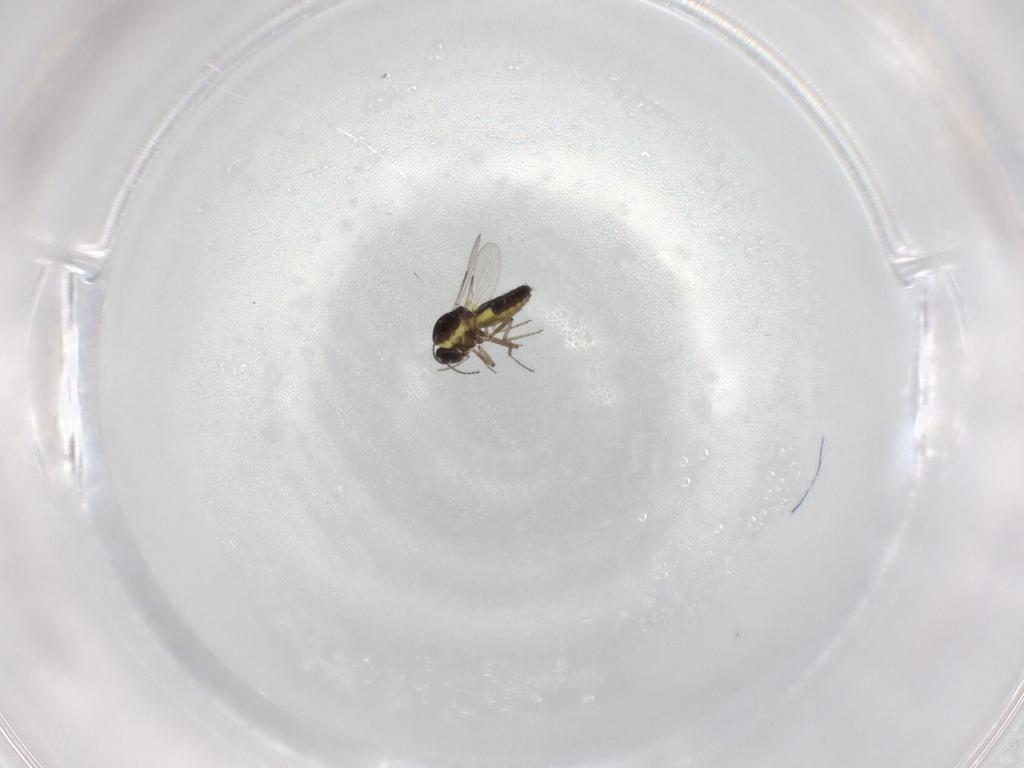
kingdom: Animalia
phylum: Arthropoda
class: Insecta
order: Diptera
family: Ceratopogonidae
